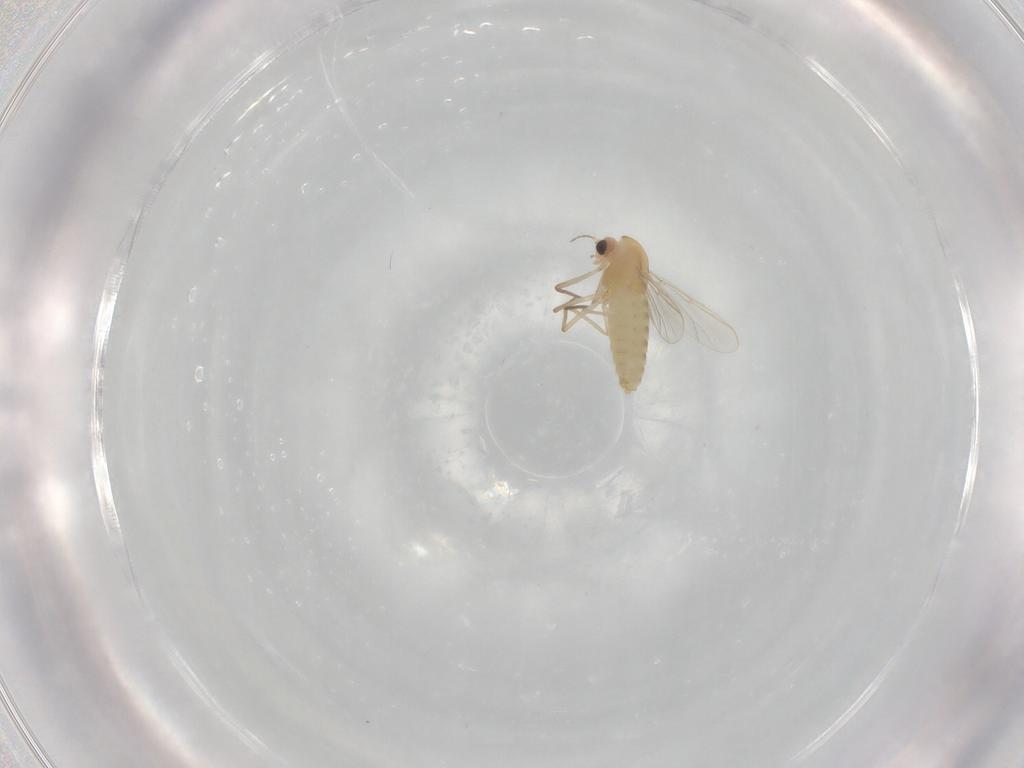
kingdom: Animalia
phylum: Arthropoda
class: Insecta
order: Diptera
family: Chironomidae
